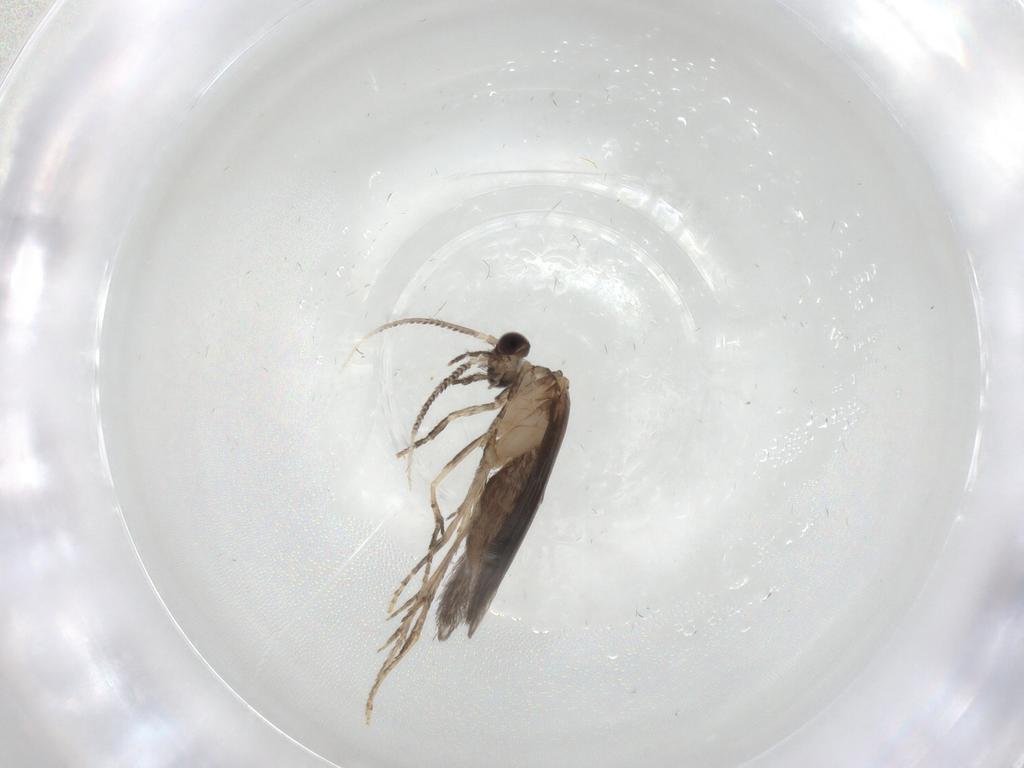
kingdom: Animalia
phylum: Arthropoda
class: Insecta
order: Trichoptera
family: Hydroptilidae
